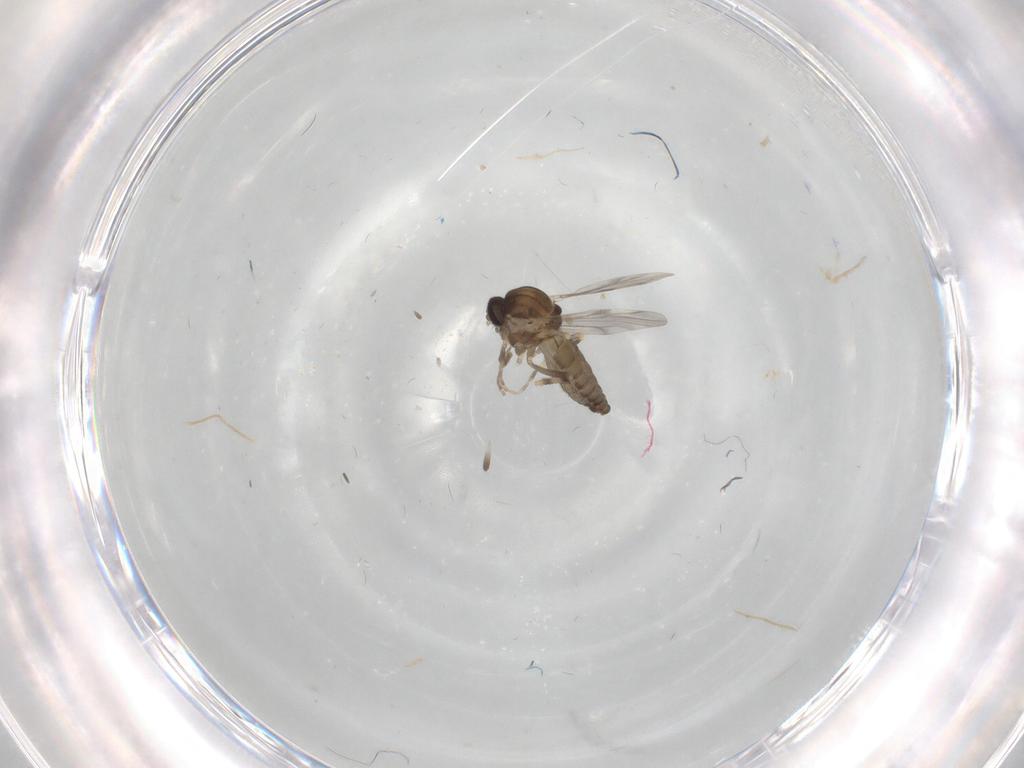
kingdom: Animalia
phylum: Arthropoda
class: Insecta
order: Diptera
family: Ceratopogonidae
